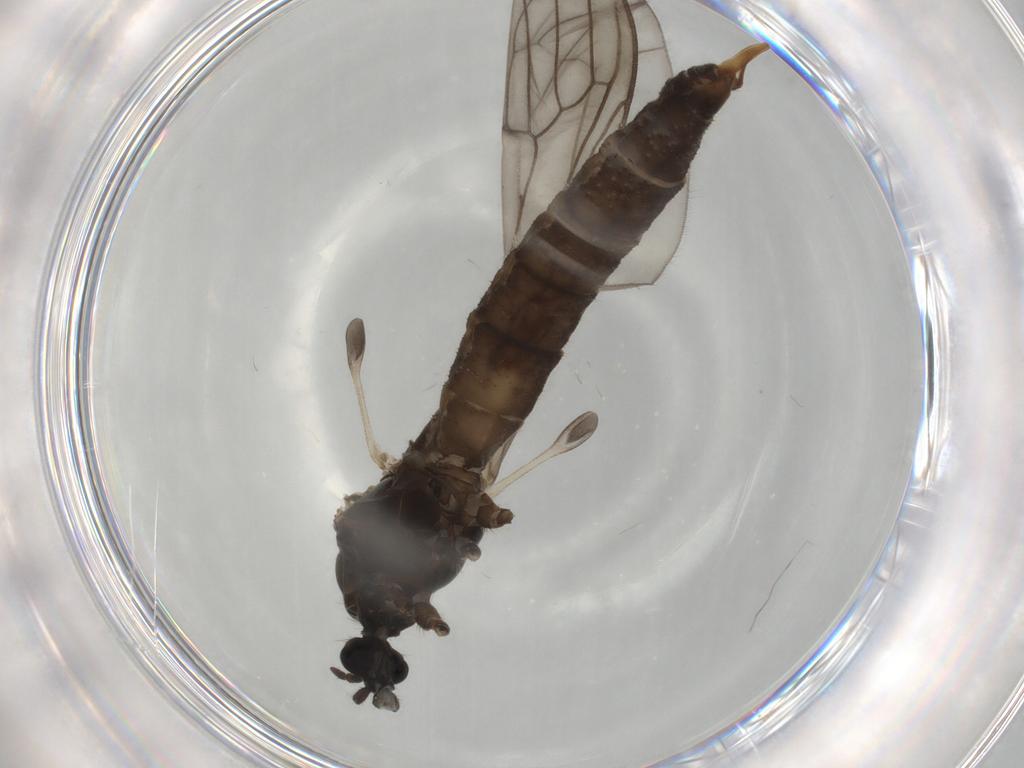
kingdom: Animalia
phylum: Arthropoda
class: Insecta
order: Diptera
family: Trichoceridae
